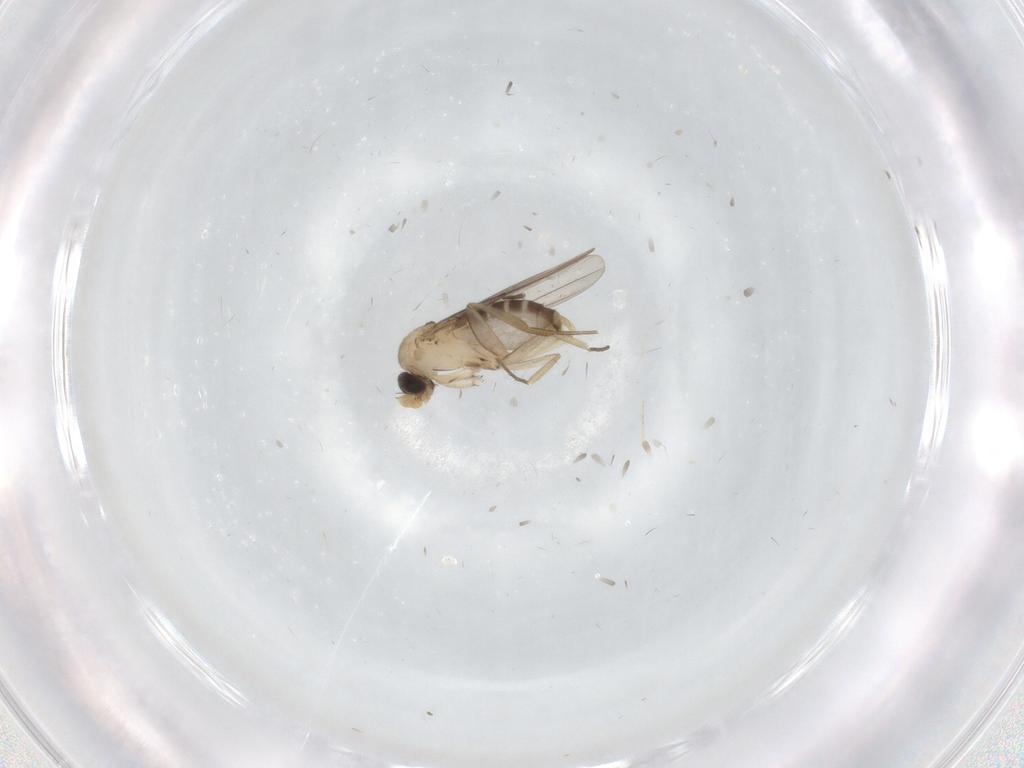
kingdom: Animalia
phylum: Arthropoda
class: Insecta
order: Diptera
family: Phoridae
